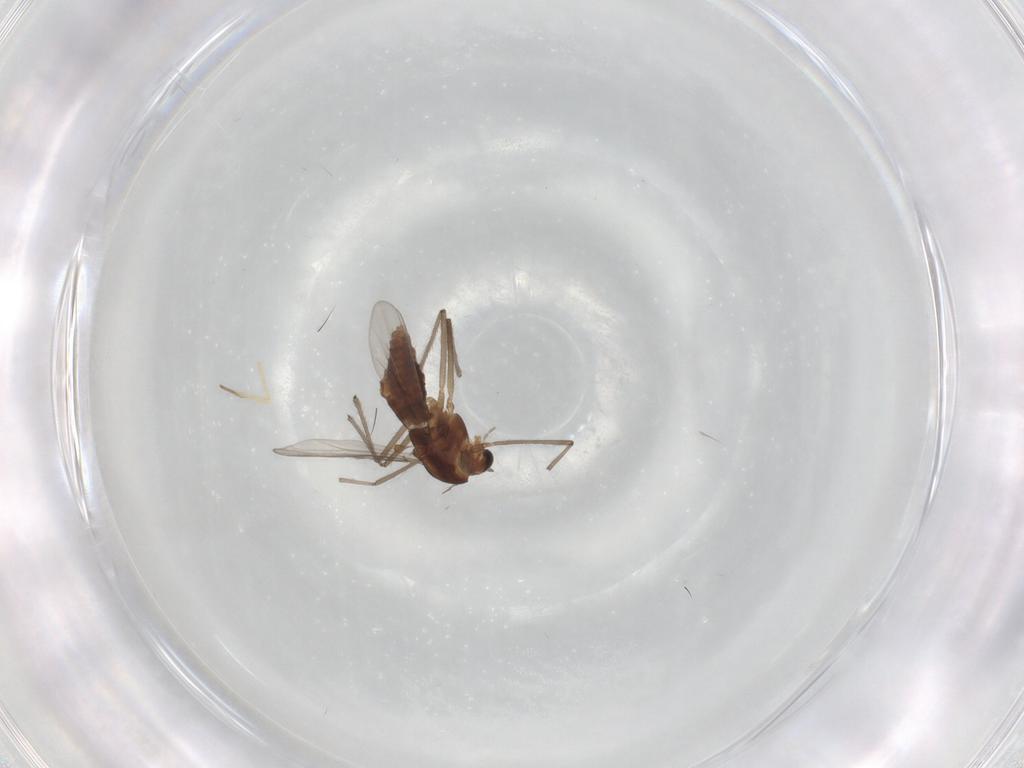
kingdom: Animalia
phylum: Arthropoda
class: Insecta
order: Diptera
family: Chironomidae
